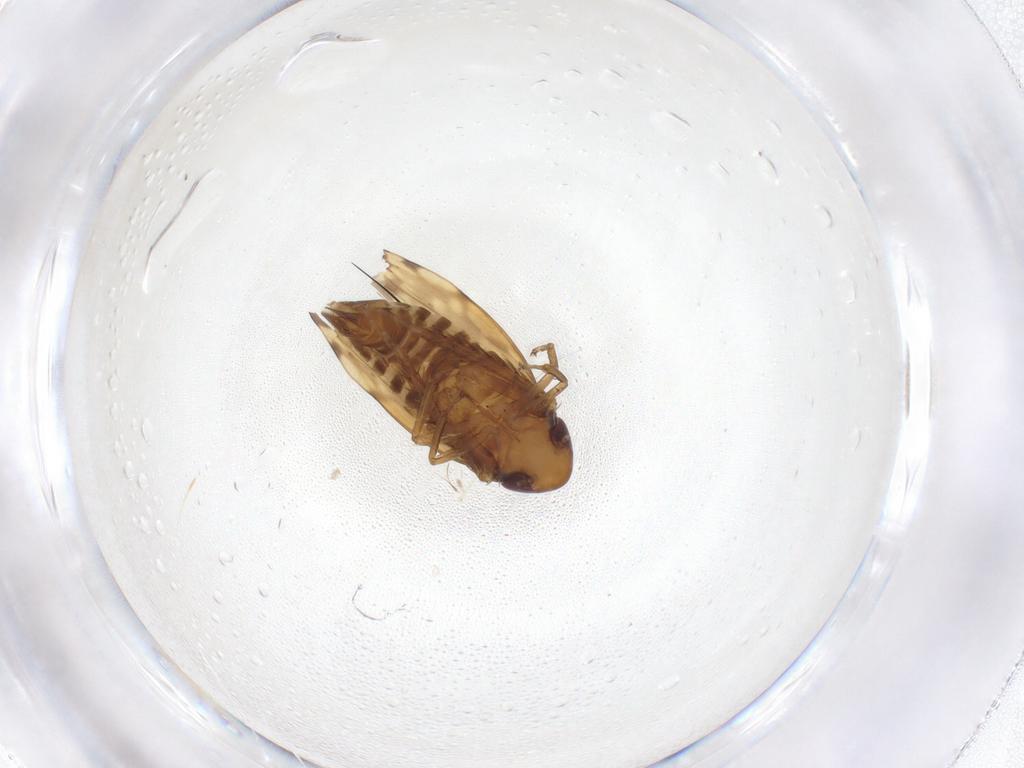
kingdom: Animalia
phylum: Arthropoda
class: Insecta
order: Hemiptera
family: Cicadellidae
